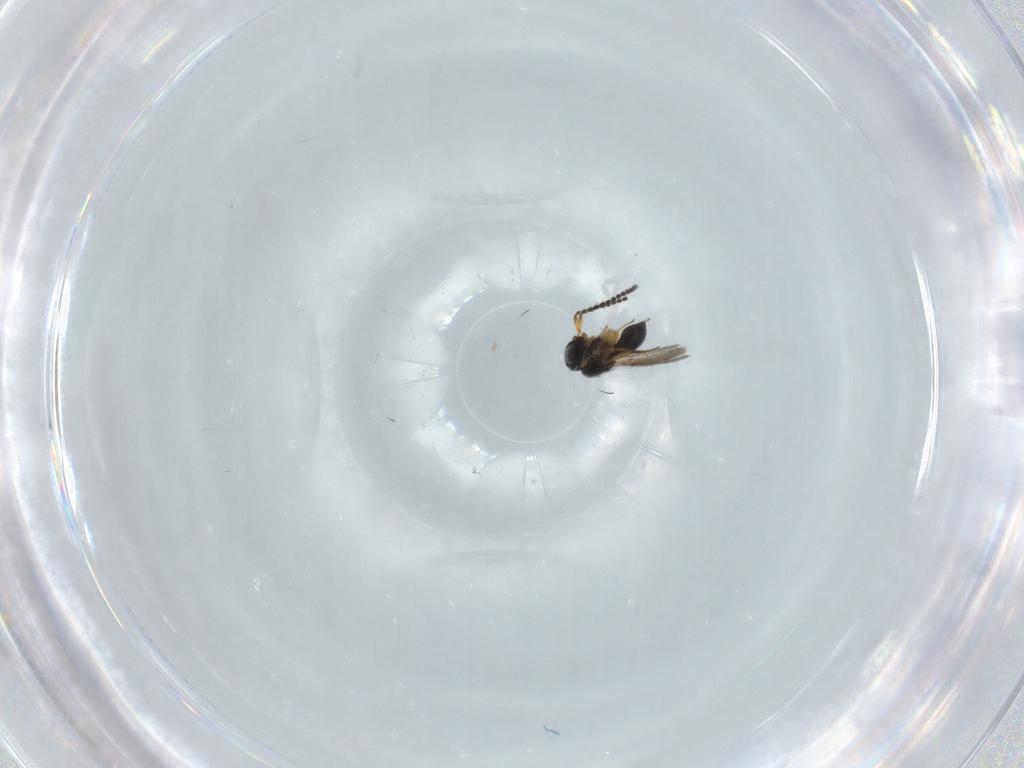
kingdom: Animalia
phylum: Arthropoda
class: Insecta
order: Hymenoptera
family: Scelionidae
